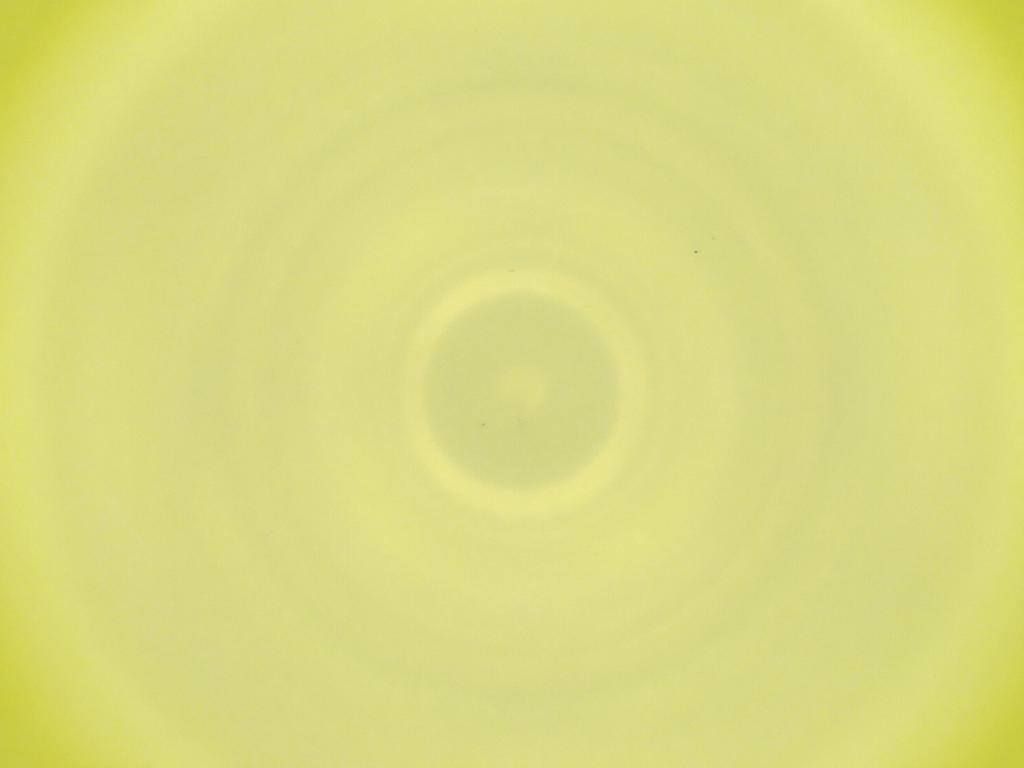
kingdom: Animalia
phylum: Arthropoda
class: Insecta
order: Diptera
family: Cecidomyiidae
